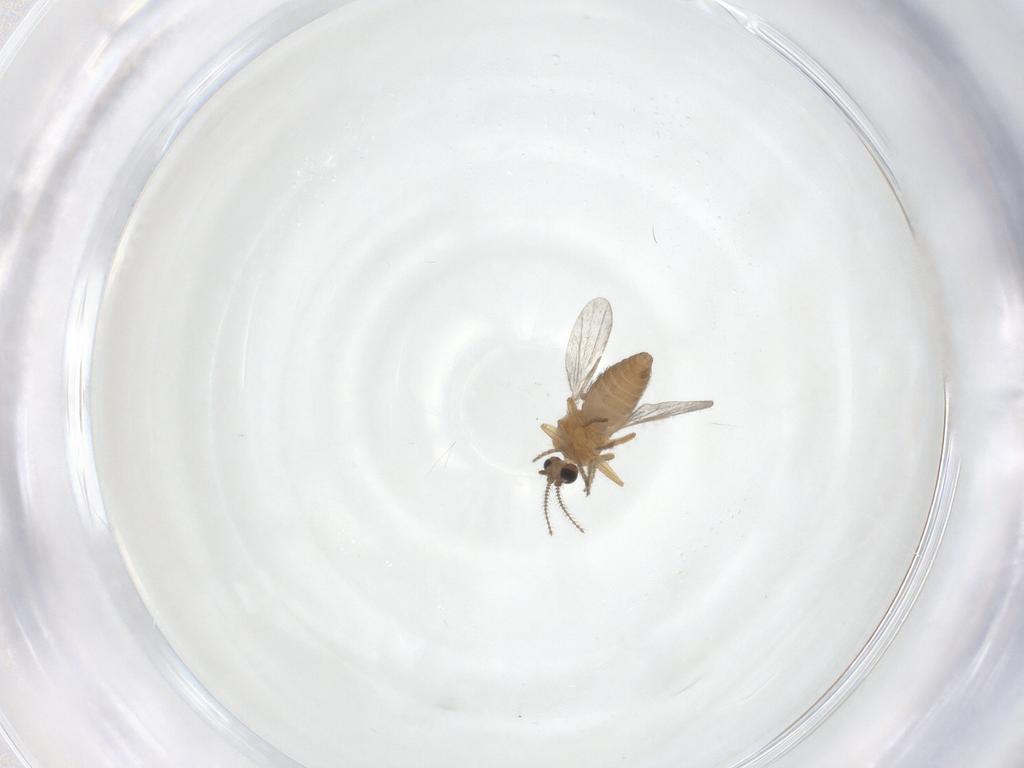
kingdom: Animalia
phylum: Arthropoda
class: Insecta
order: Diptera
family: Ceratopogonidae
